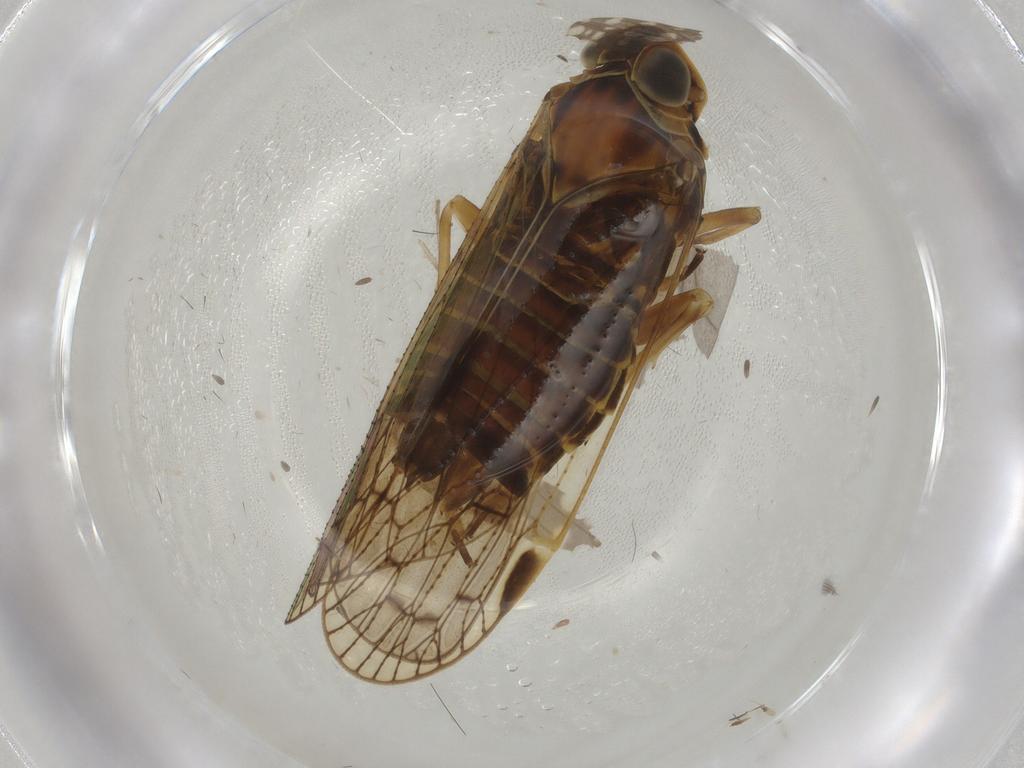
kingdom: Animalia
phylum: Arthropoda
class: Insecta
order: Hemiptera
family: Cixiidae
